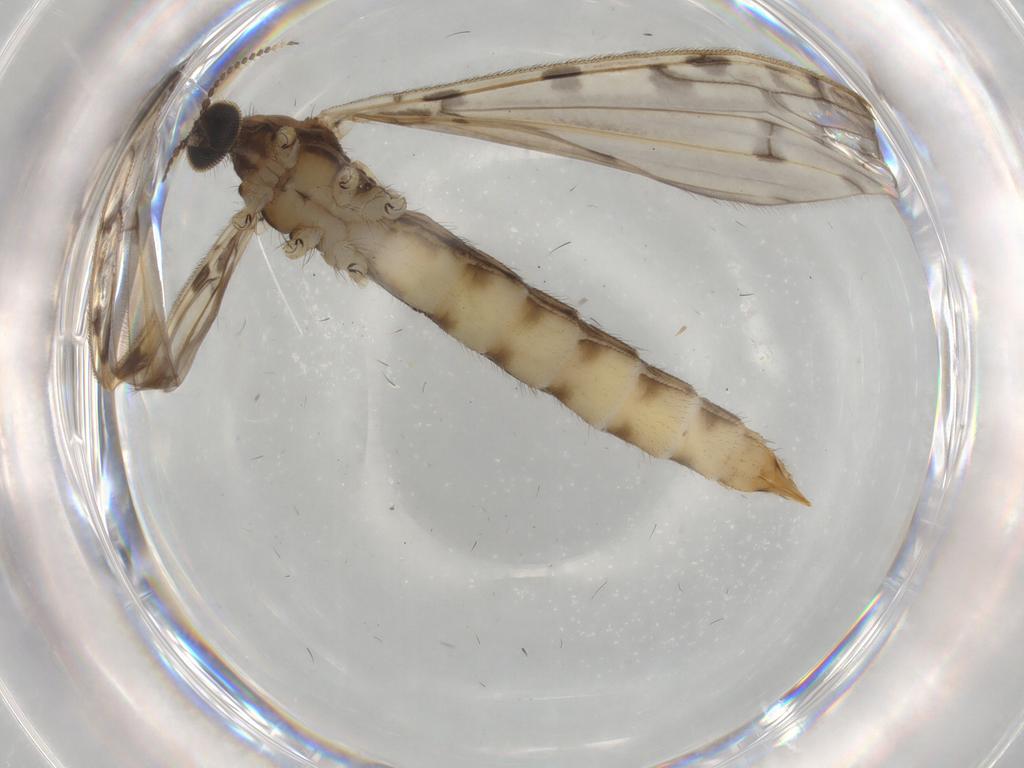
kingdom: Animalia
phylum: Arthropoda
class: Insecta
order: Diptera
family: Limoniidae
